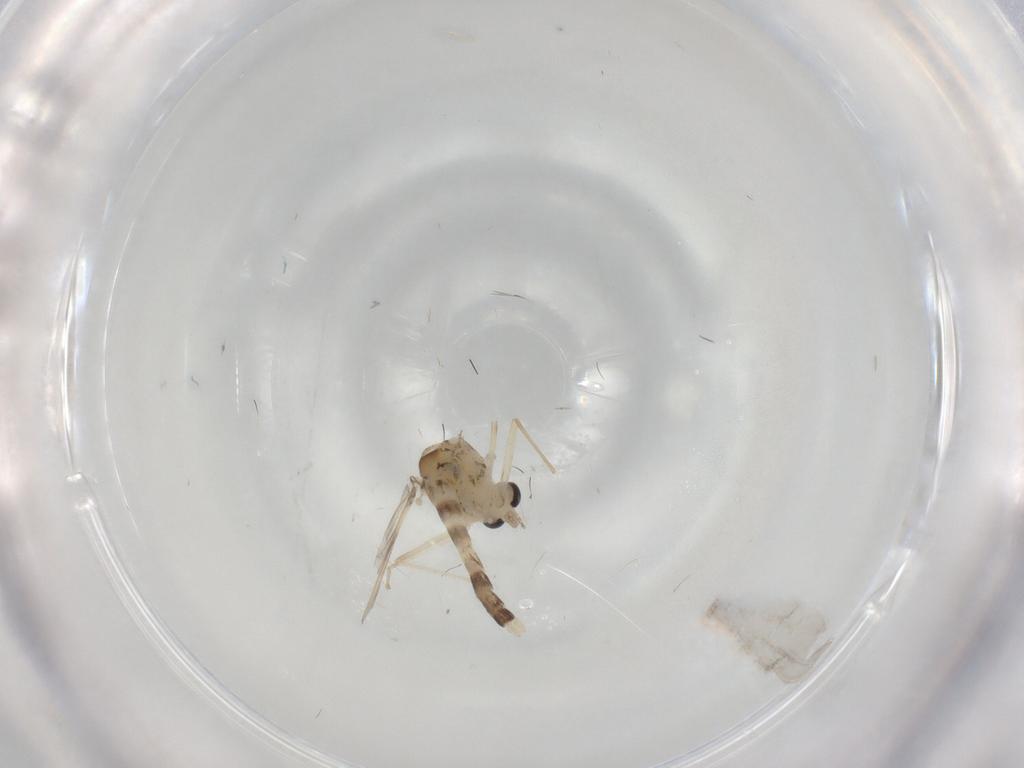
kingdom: Animalia
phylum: Arthropoda
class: Insecta
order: Diptera
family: Chironomidae
